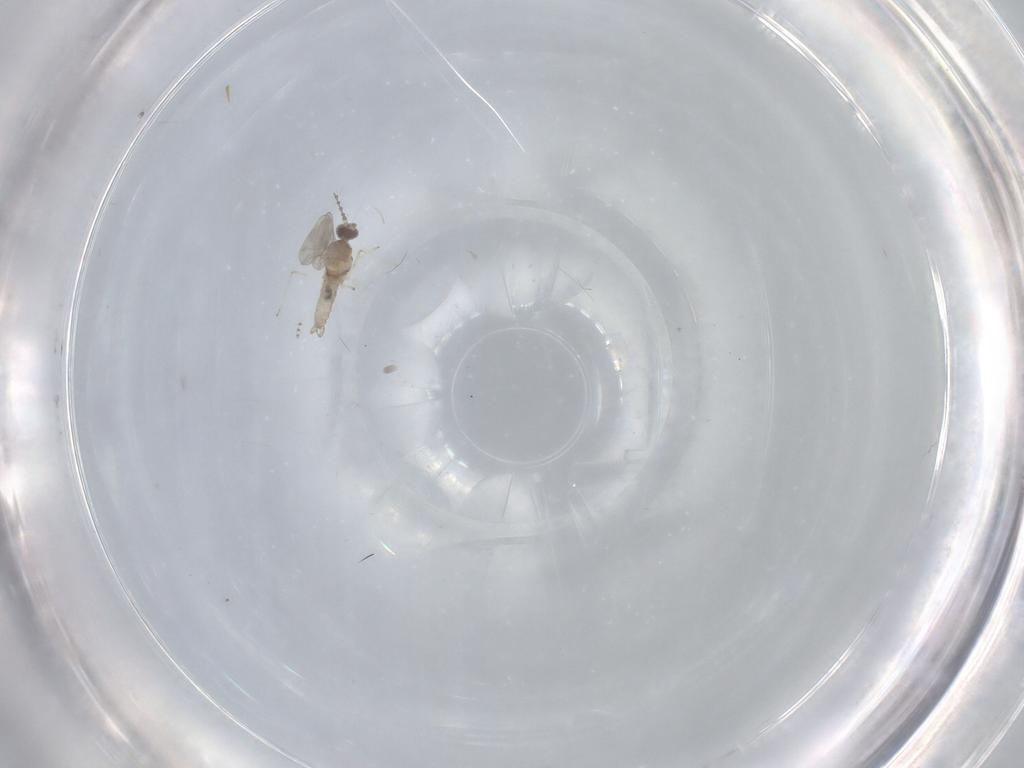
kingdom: Animalia
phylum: Arthropoda
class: Insecta
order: Diptera
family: Cecidomyiidae
